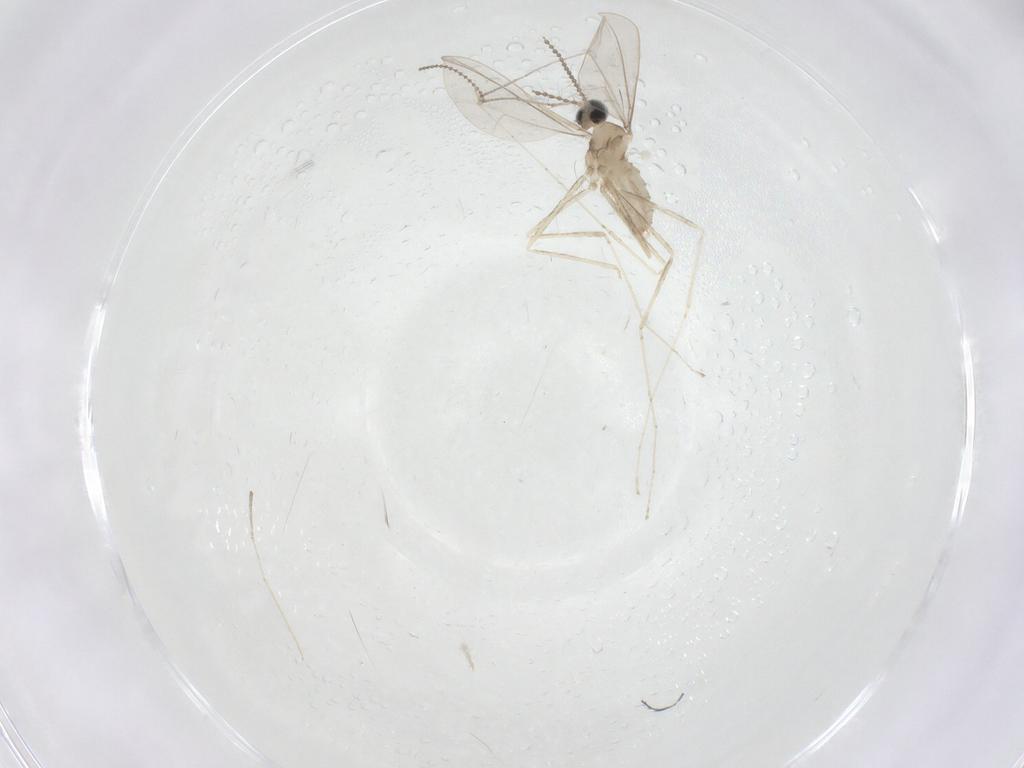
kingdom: Animalia
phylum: Arthropoda
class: Insecta
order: Diptera
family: Cecidomyiidae
